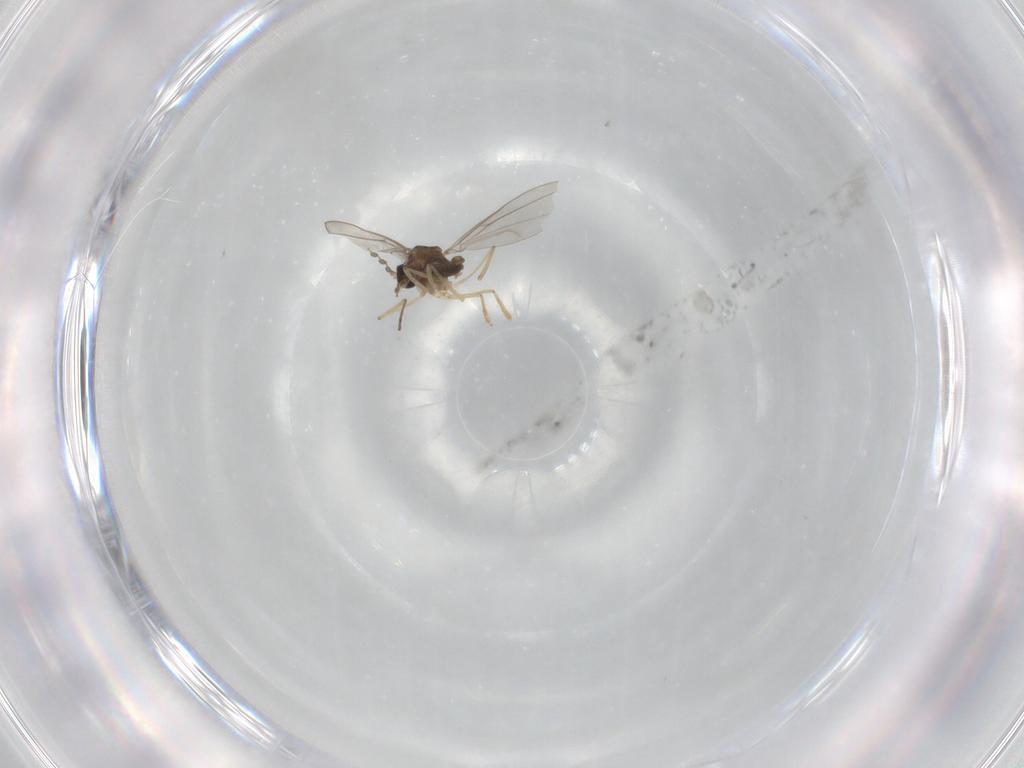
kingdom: Animalia
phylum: Arthropoda
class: Insecta
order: Diptera
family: Cecidomyiidae
